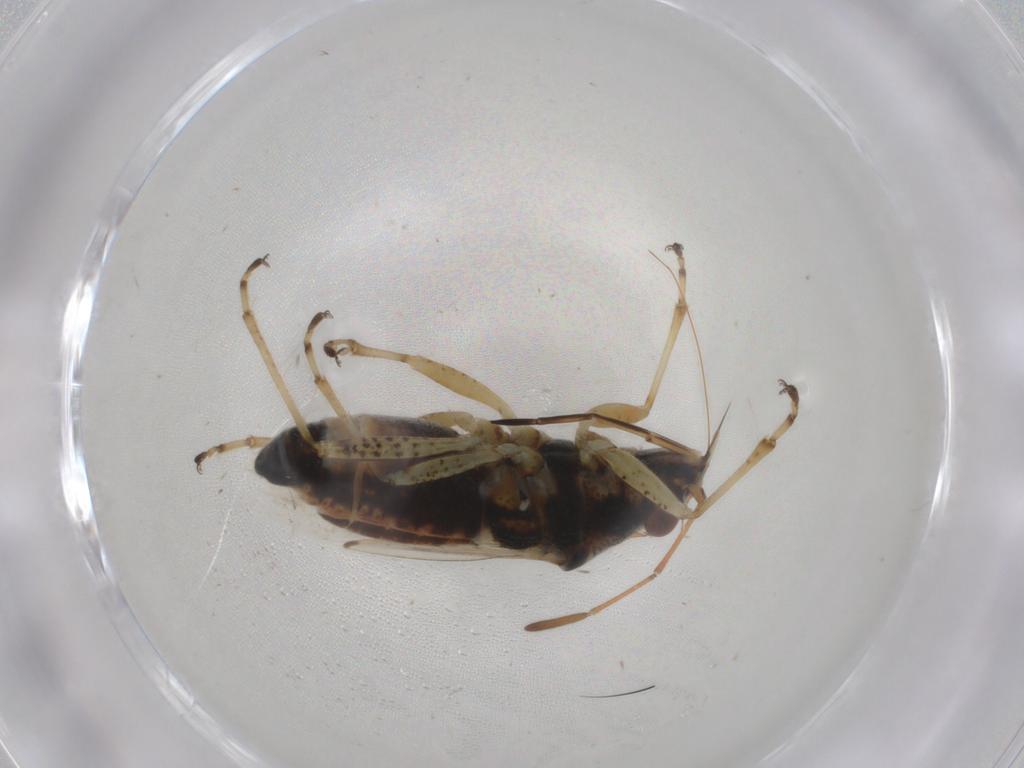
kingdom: Animalia
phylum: Arthropoda
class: Insecta
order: Hemiptera
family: Lygaeidae
